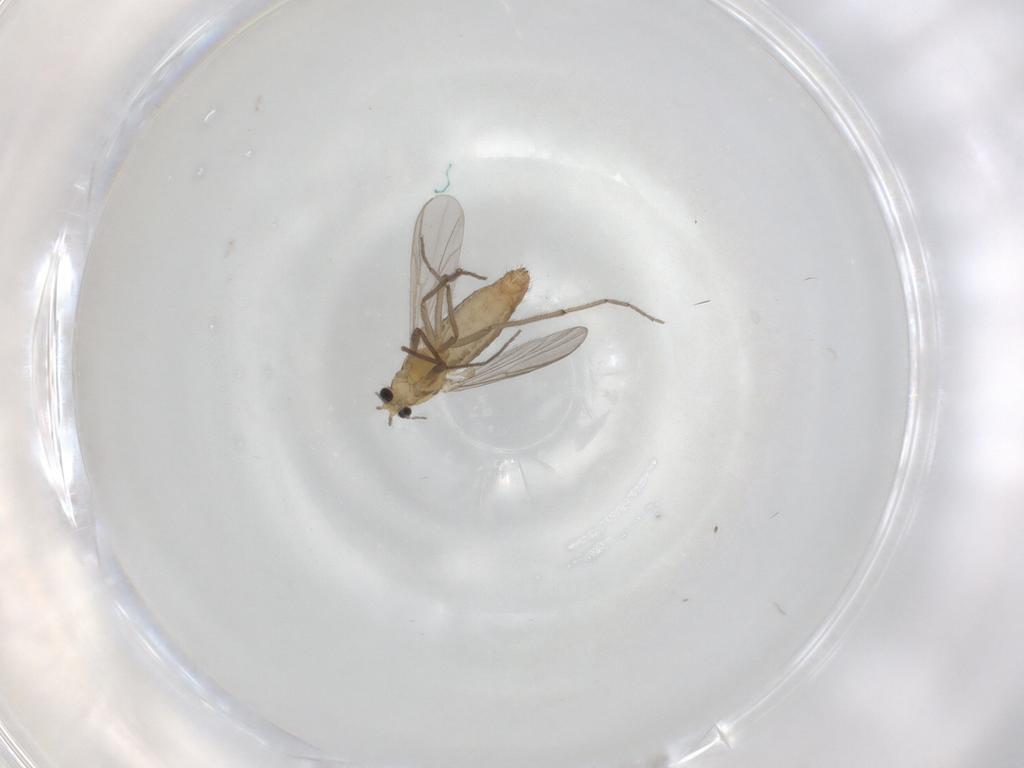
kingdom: Animalia
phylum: Arthropoda
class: Insecta
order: Diptera
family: Chironomidae
